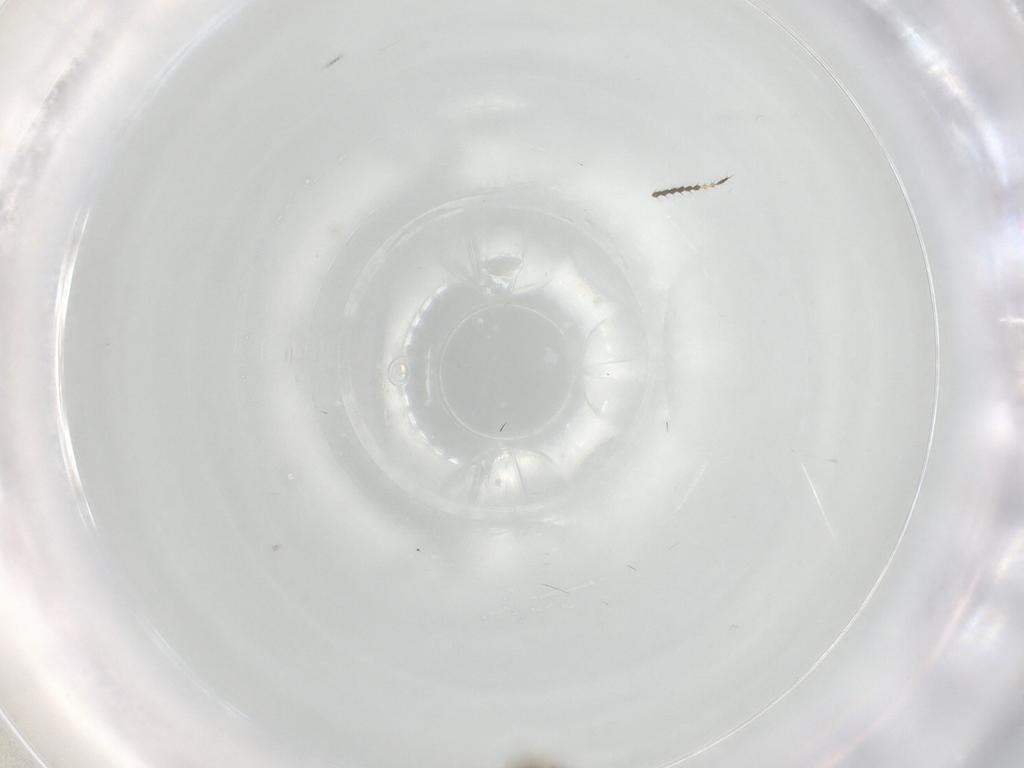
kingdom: Animalia
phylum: Arthropoda
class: Insecta
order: Diptera
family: Limoniidae
